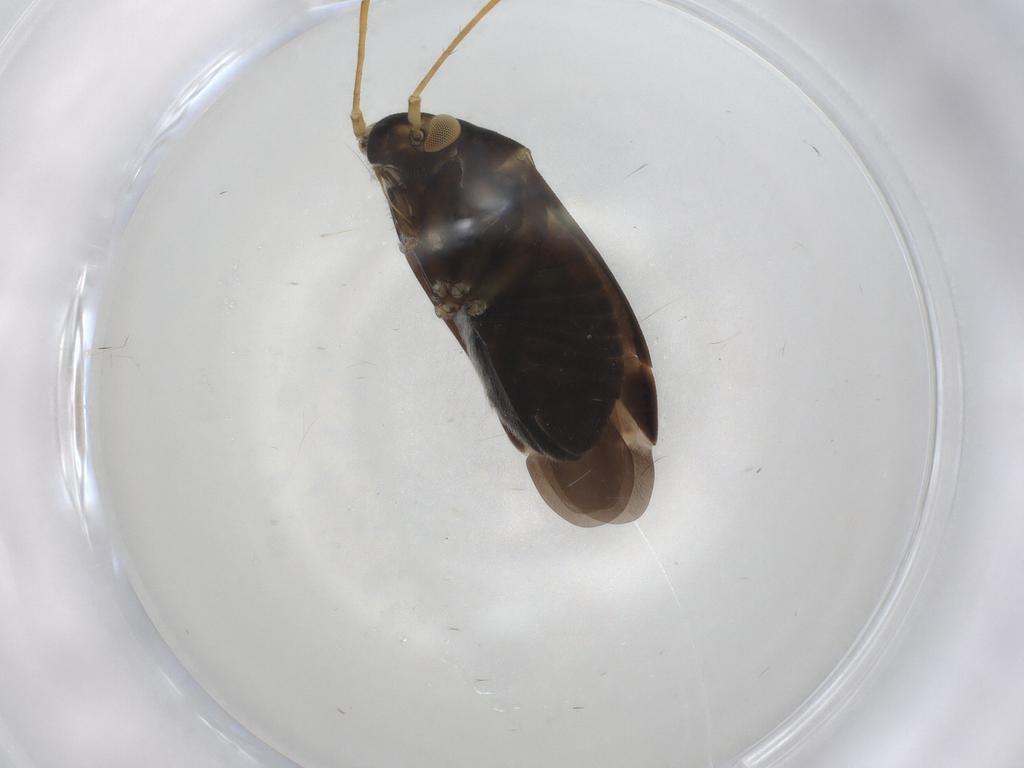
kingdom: Animalia
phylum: Arthropoda
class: Insecta
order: Hemiptera
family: Miridae
